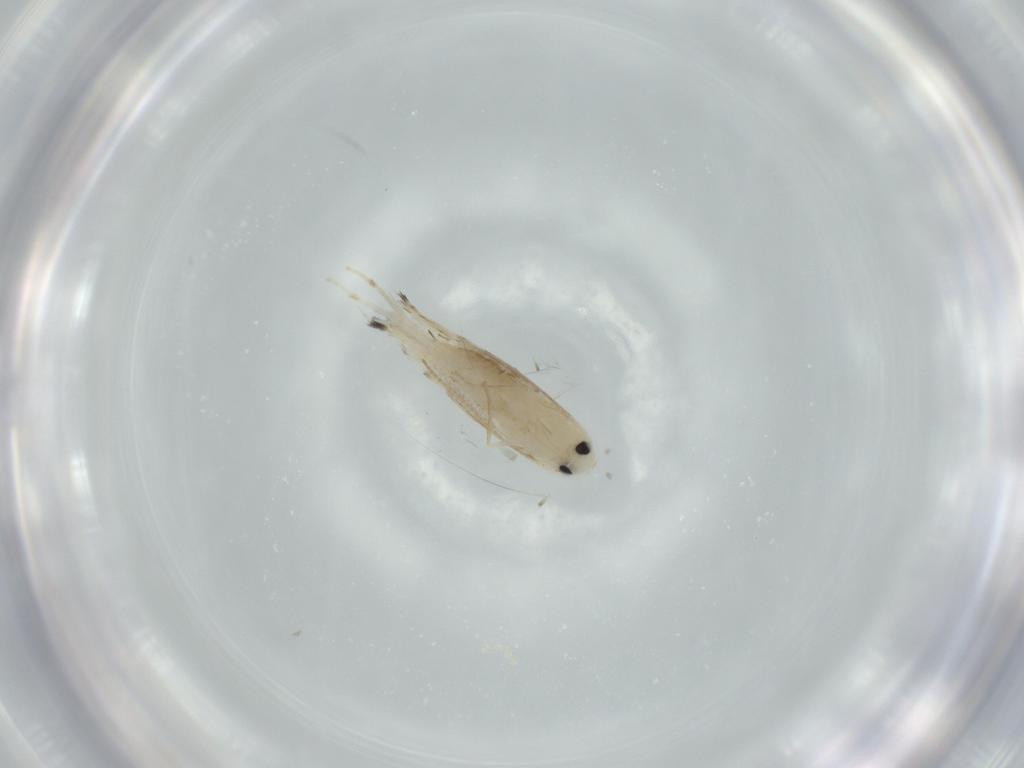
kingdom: Animalia
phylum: Arthropoda
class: Insecta
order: Lepidoptera
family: Gracillariidae
